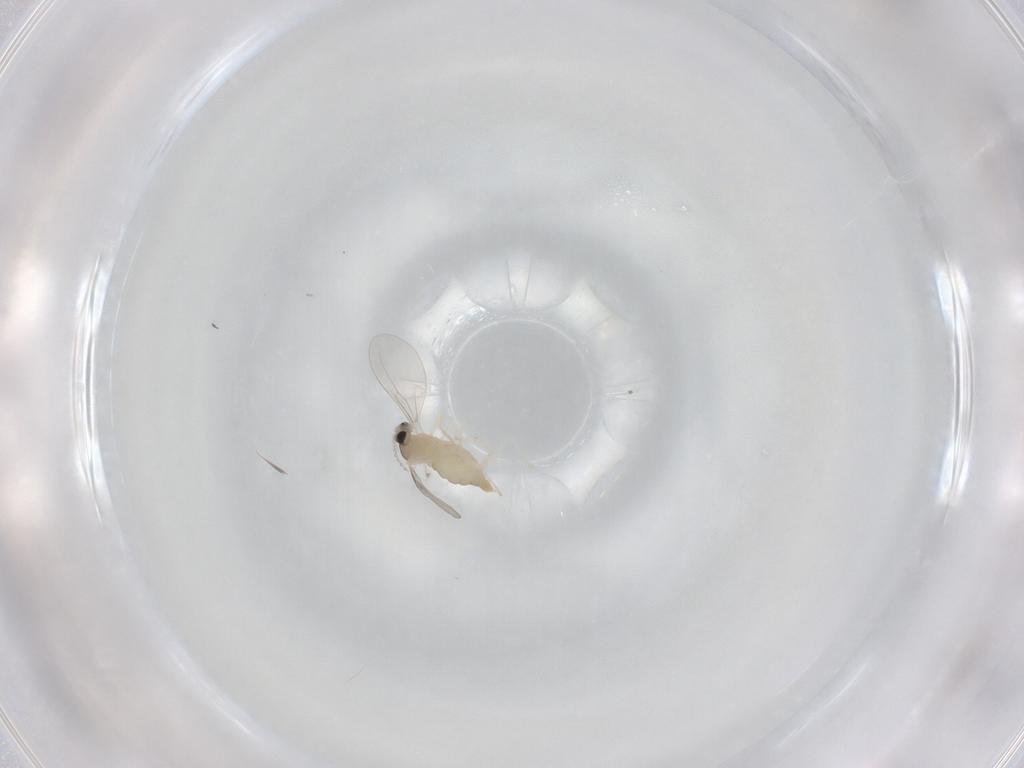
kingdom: Animalia
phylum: Arthropoda
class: Insecta
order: Diptera
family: Cecidomyiidae
